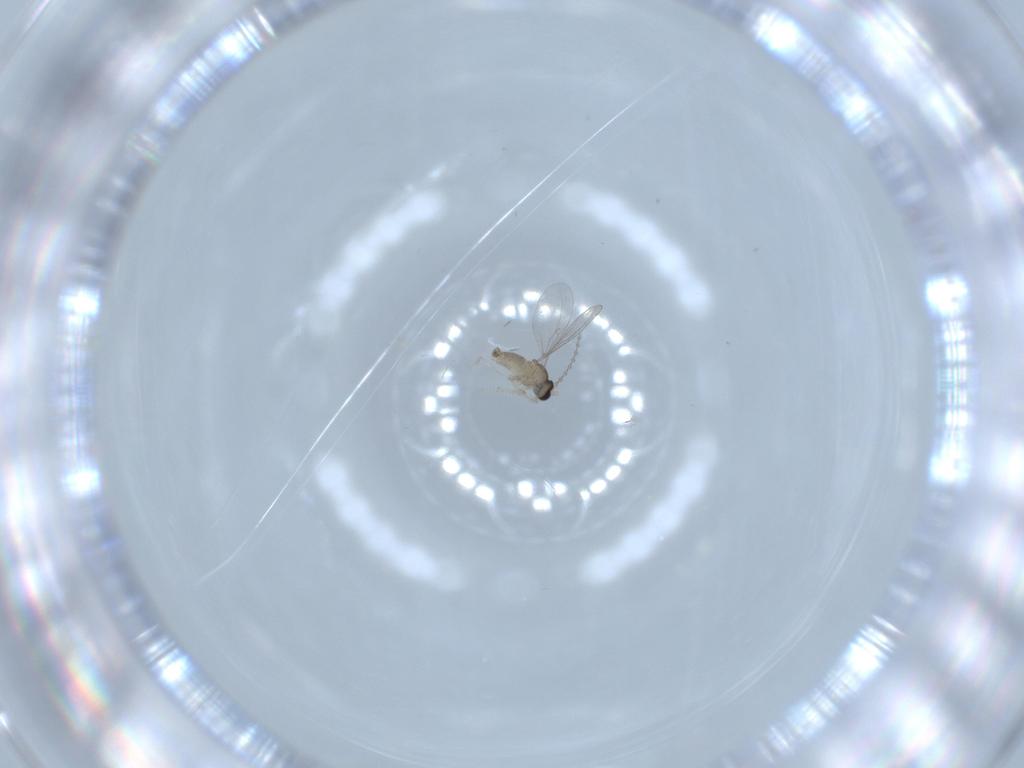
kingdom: Animalia
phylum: Arthropoda
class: Insecta
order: Diptera
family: Cecidomyiidae
